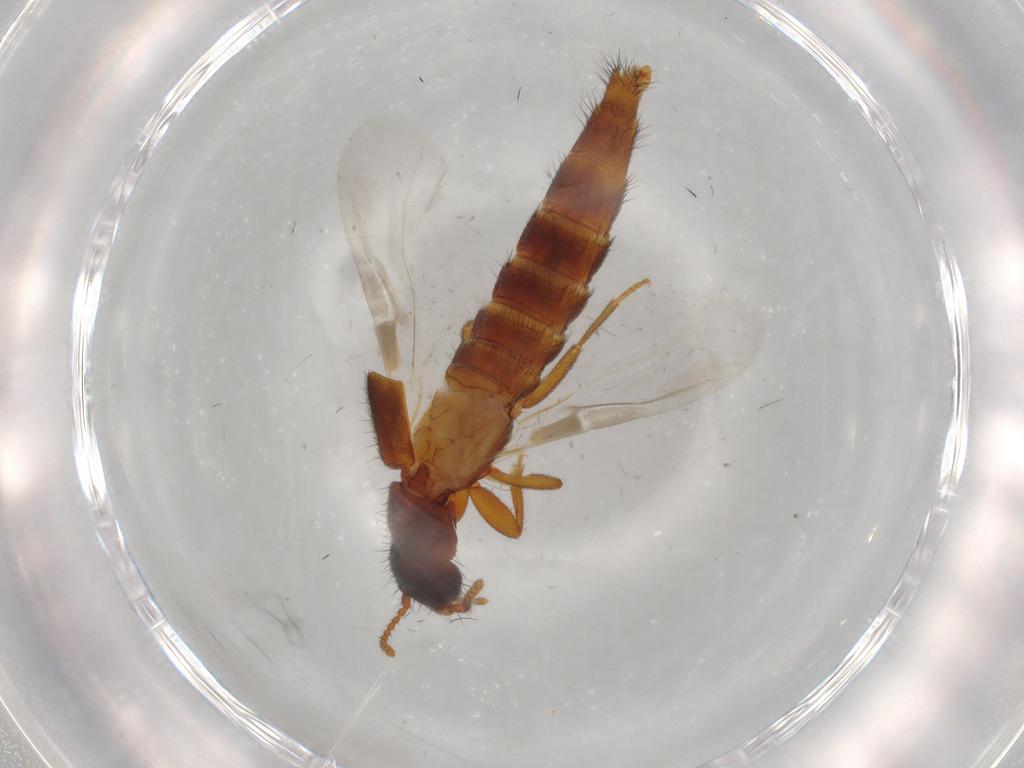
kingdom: Animalia
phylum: Arthropoda
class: Insecta
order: Coleoptera
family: Staphylinidae
